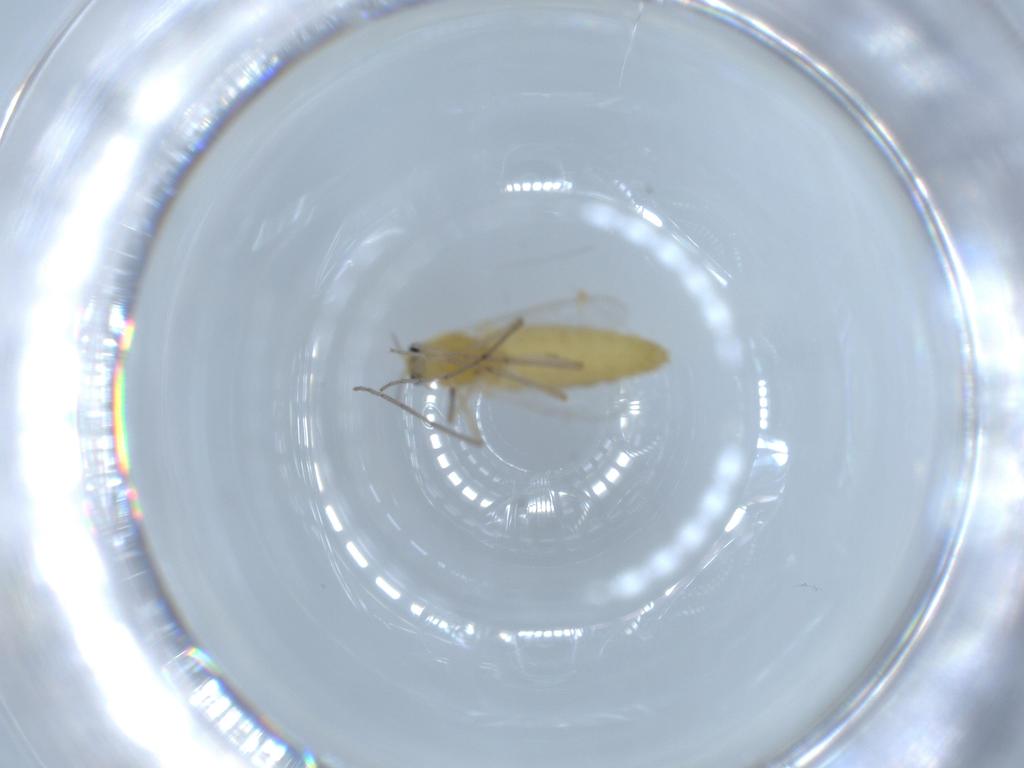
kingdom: Animalia
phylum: Arthropoda
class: Insecta
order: Diptera
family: Chironomidae
